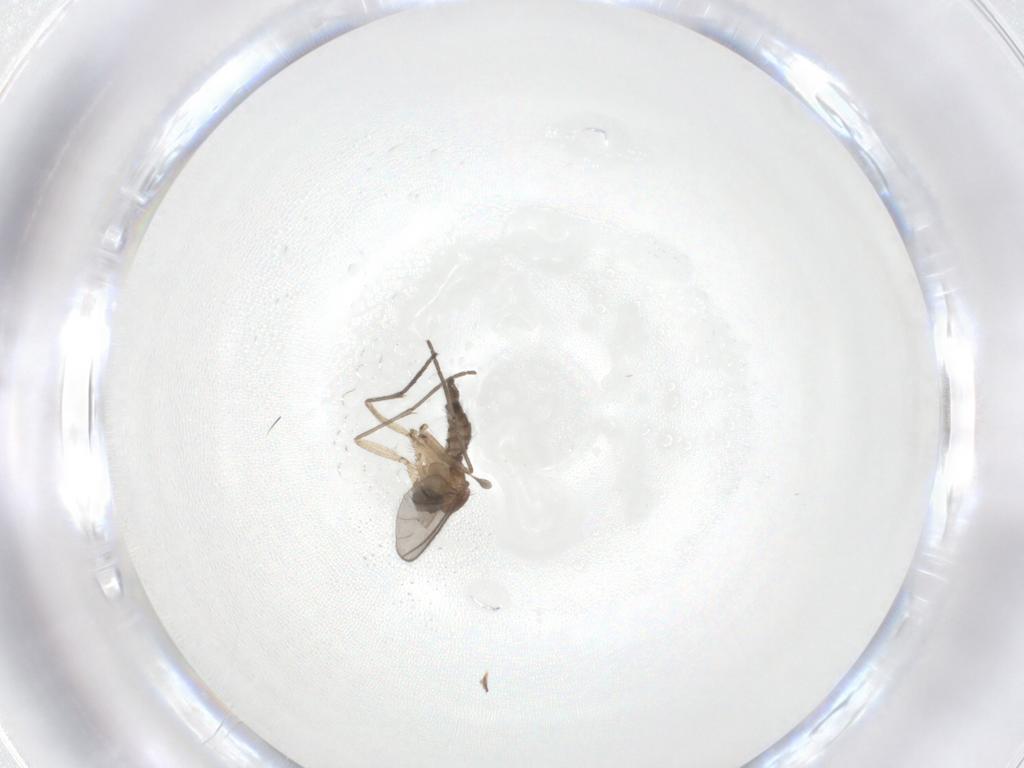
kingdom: Animalia
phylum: Arthropoda
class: Insecta
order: Diptera
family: Sciaridae
